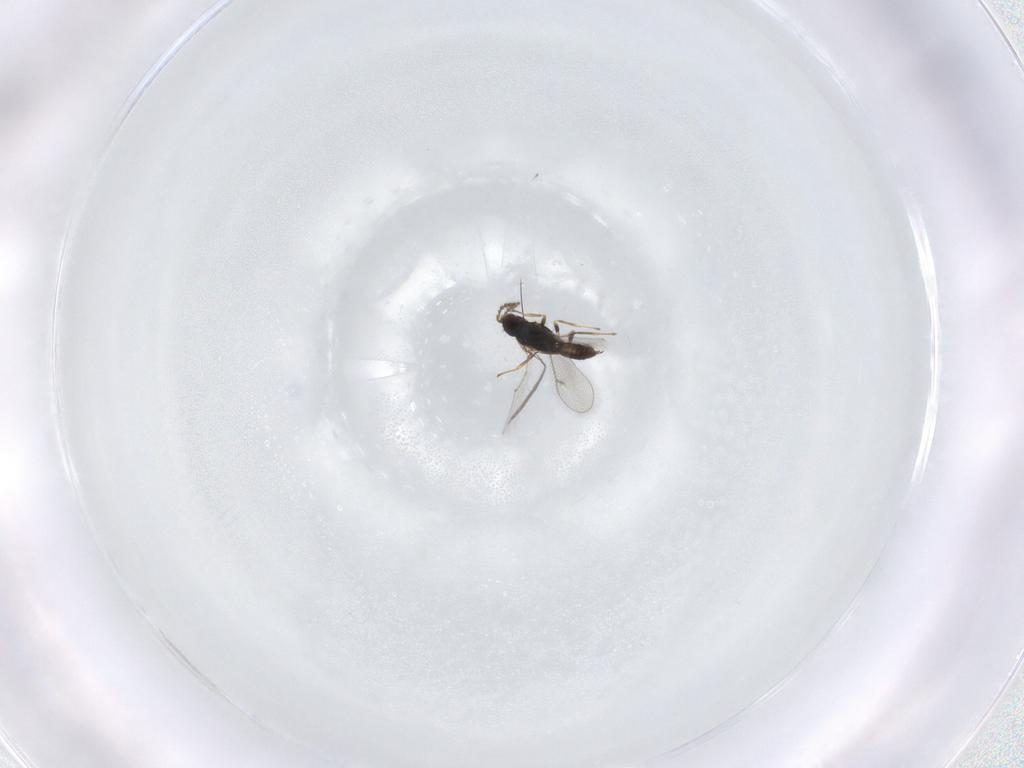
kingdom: Animalia
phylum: Arthropoda
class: Insecta
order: Hymenoptera
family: Eulophidae
